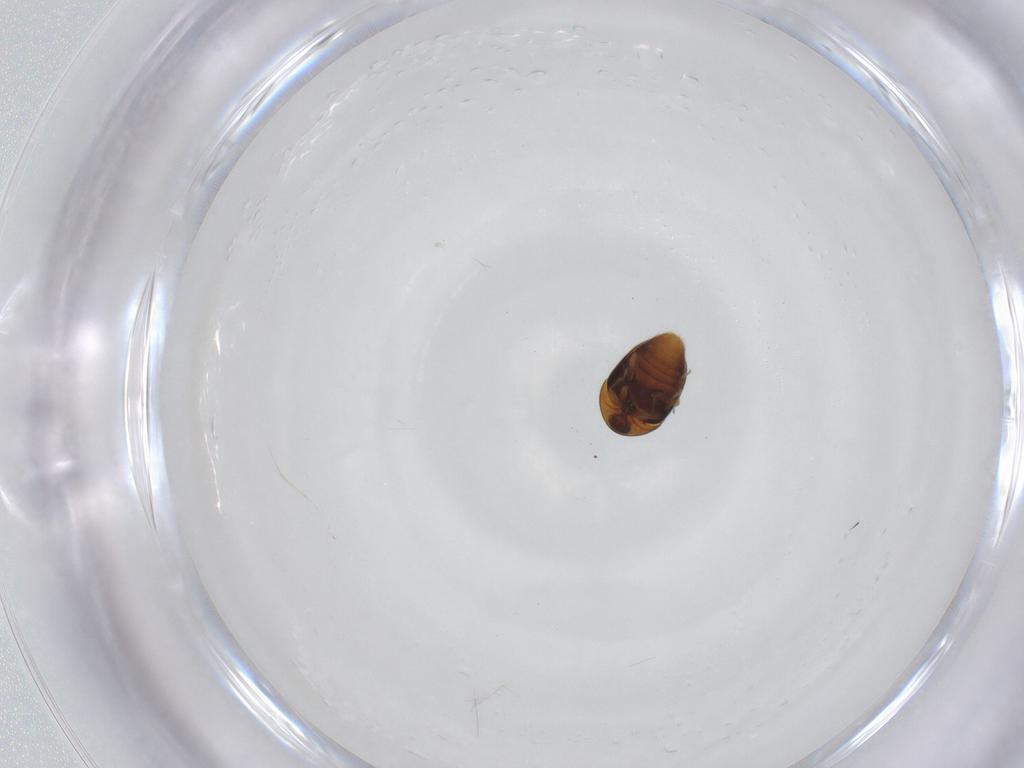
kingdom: Animalia
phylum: Arthropoda
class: Insecta
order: Coleoptera
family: Corylophidae
